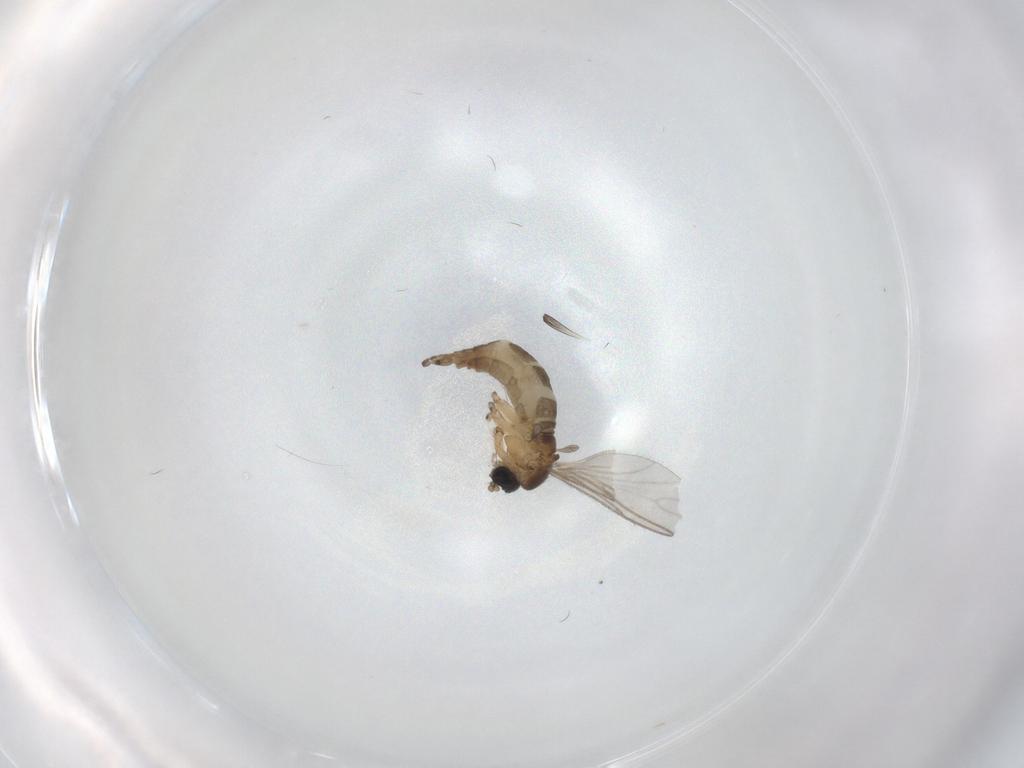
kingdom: Animalia
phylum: Arthropoda
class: Insecta
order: Diptera
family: Sciaridae
